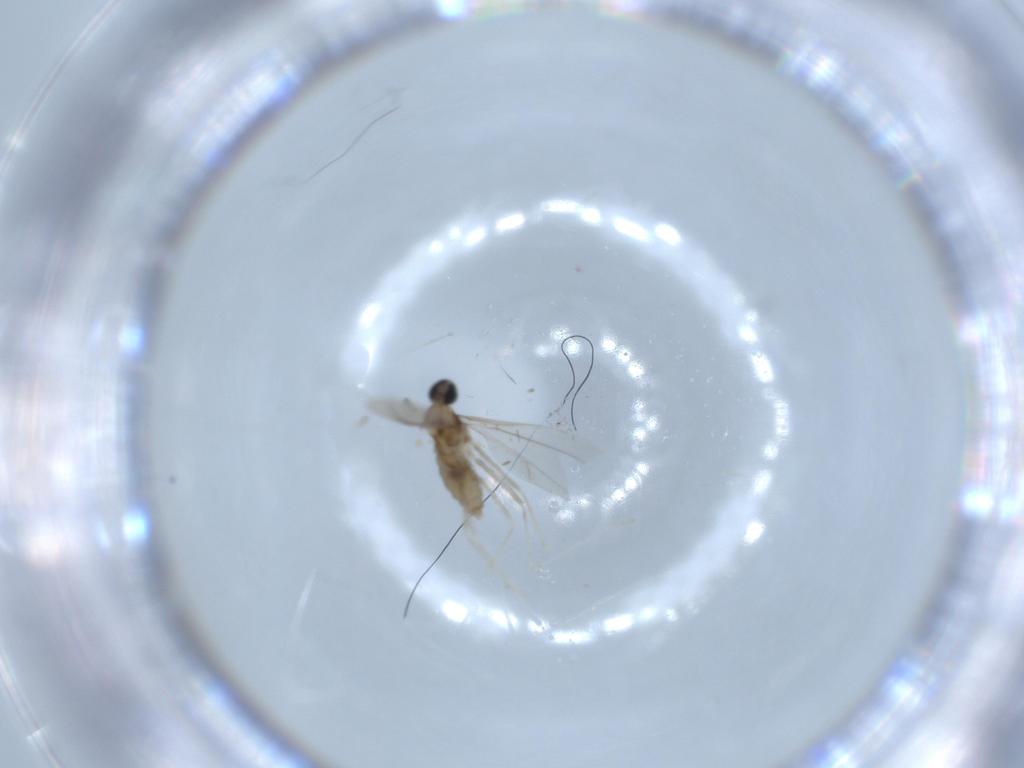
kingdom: Animalia
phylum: Arthropoda
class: Insecta
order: Diptera
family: Cecidomyiidae
